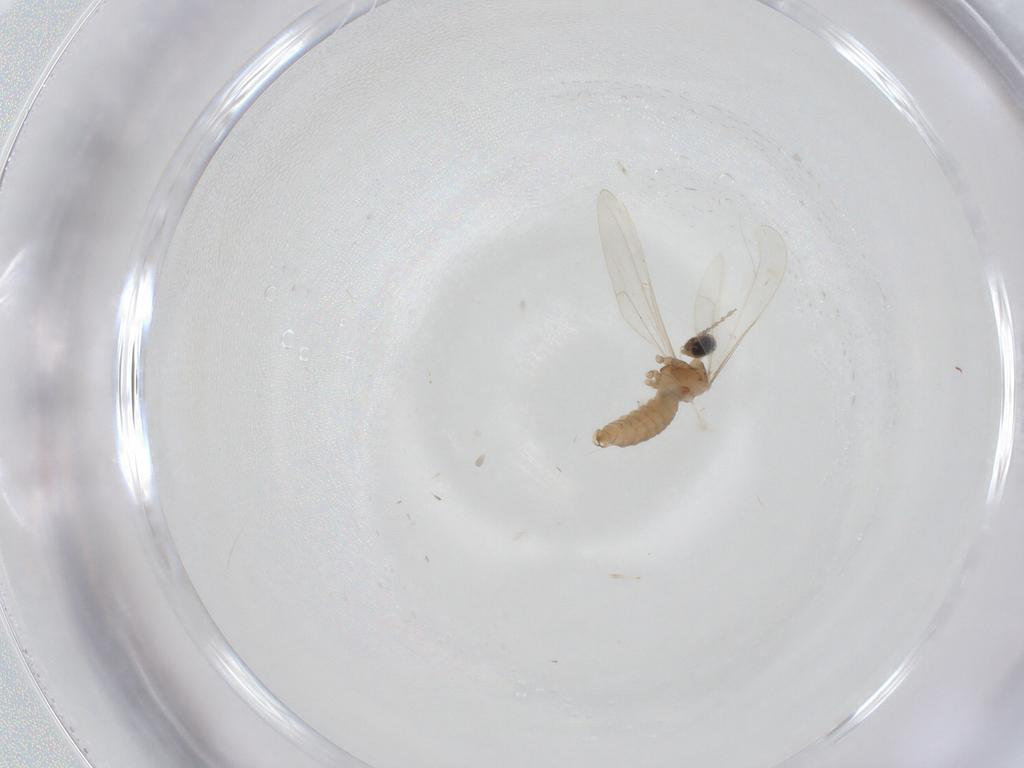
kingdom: Animalia
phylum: Arthropoda
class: Insecta
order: Diptera
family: Cecidomyiidae
